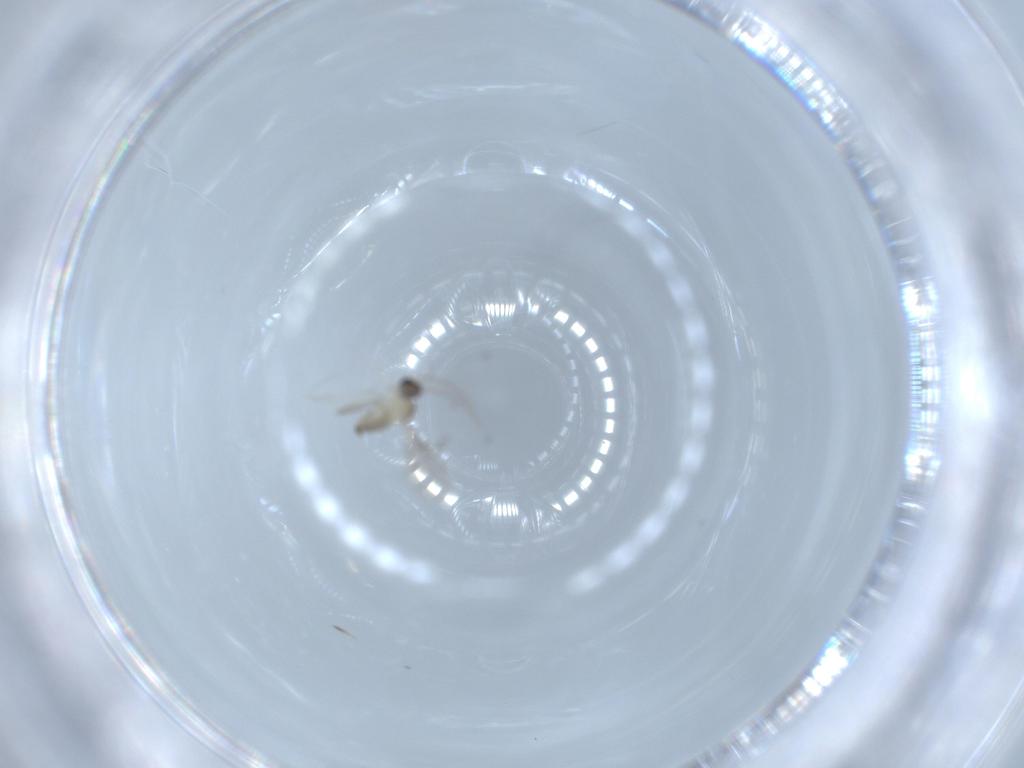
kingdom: Animalia
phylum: Arthropoda
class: Insecta
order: Diptera
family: Cecidomyiidae
